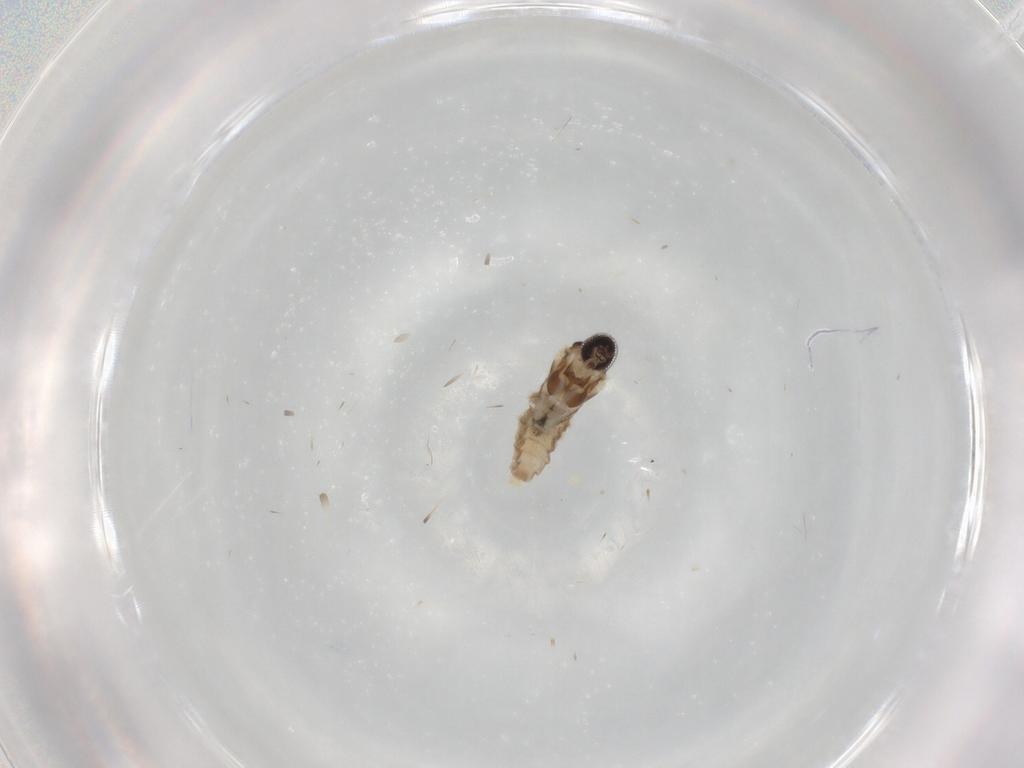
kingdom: Animalia
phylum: Arthropoda
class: Insecta
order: Diptera
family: Cecidomyiidae
